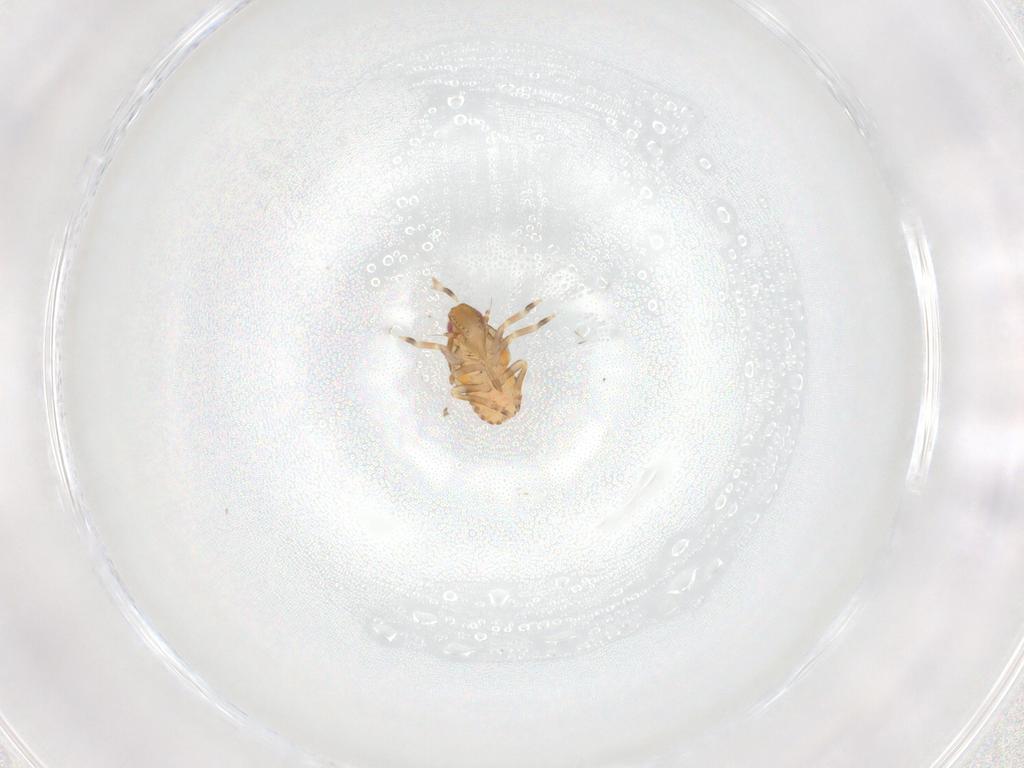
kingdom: Animalia
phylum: Arthropoda
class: Insecta
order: Hemiptera
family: Flatidae
